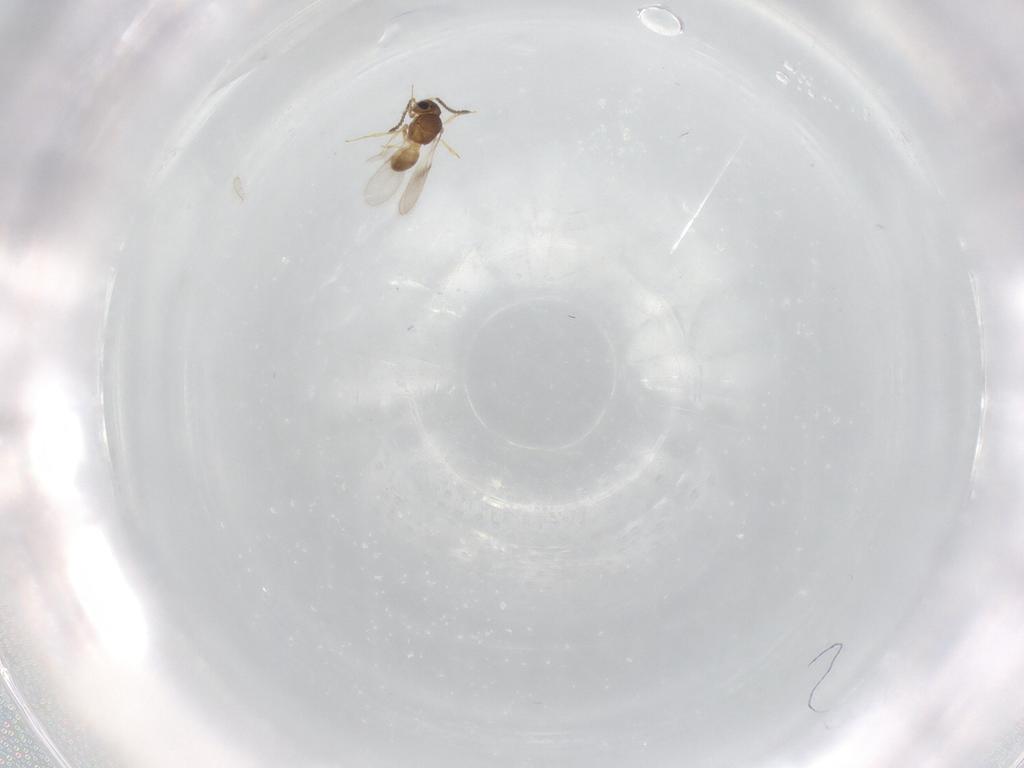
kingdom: Animalia
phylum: Arthropoda
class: Insecta
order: Hymenoptera
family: Scelionidae
